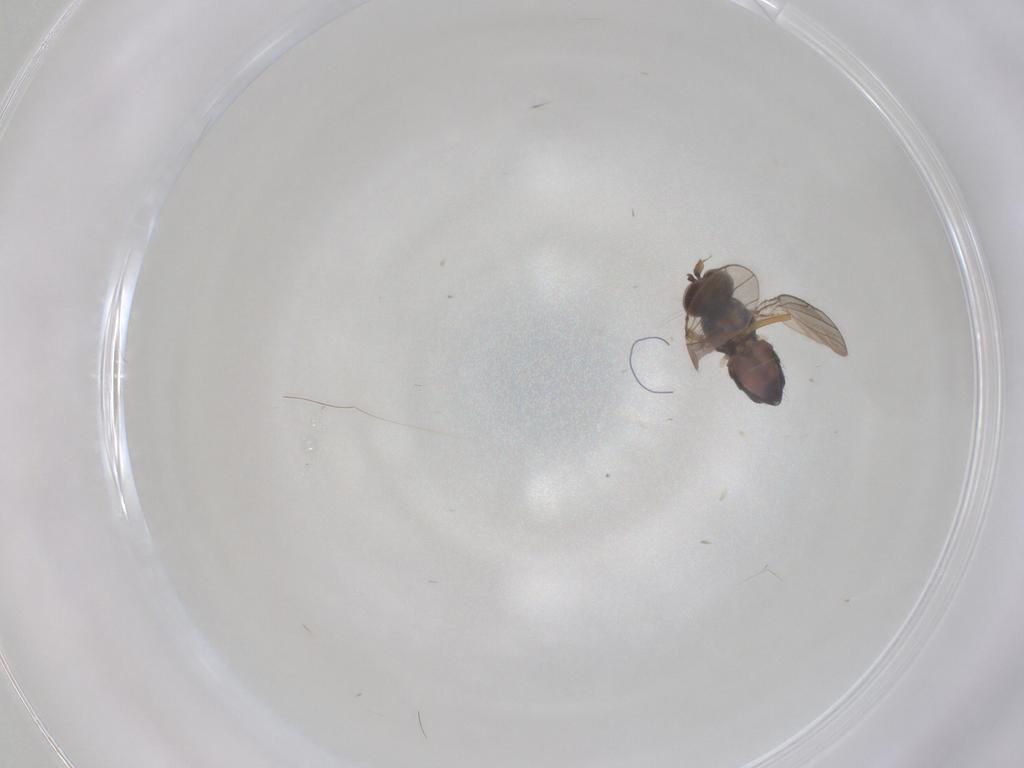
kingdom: Animalia
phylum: Arthropoda
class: Insecta
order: Diptera
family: Ephydridae
